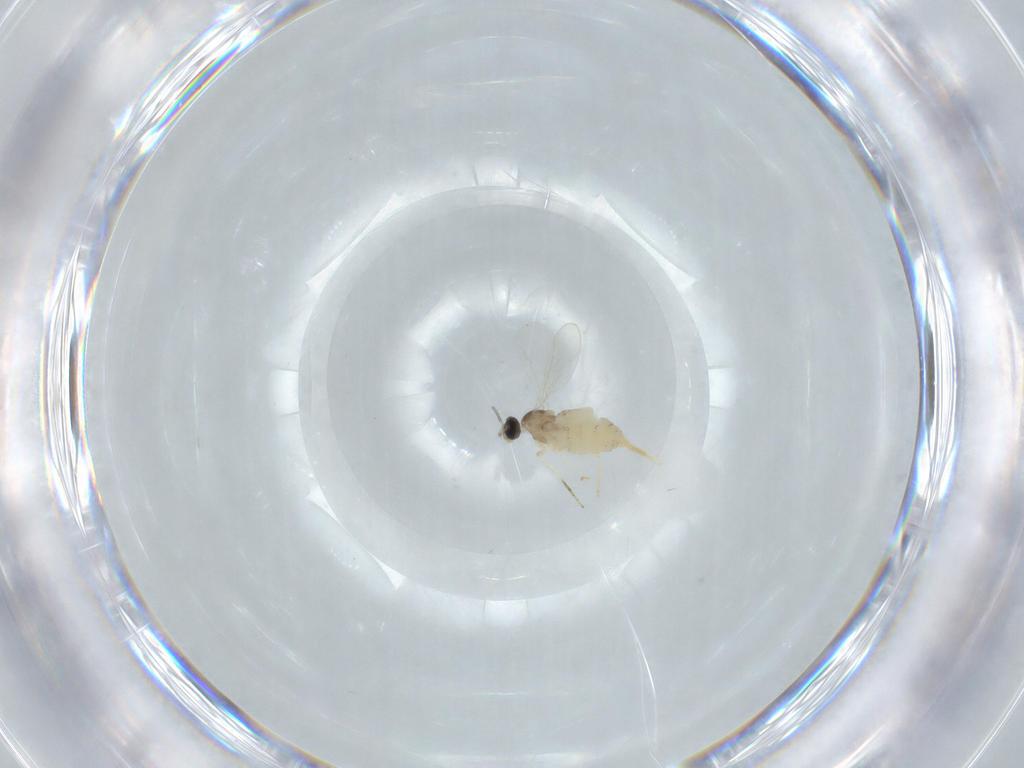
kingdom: Animalia
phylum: Arthropoda
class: Insecta
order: Diptera
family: Cecidomyiidae
